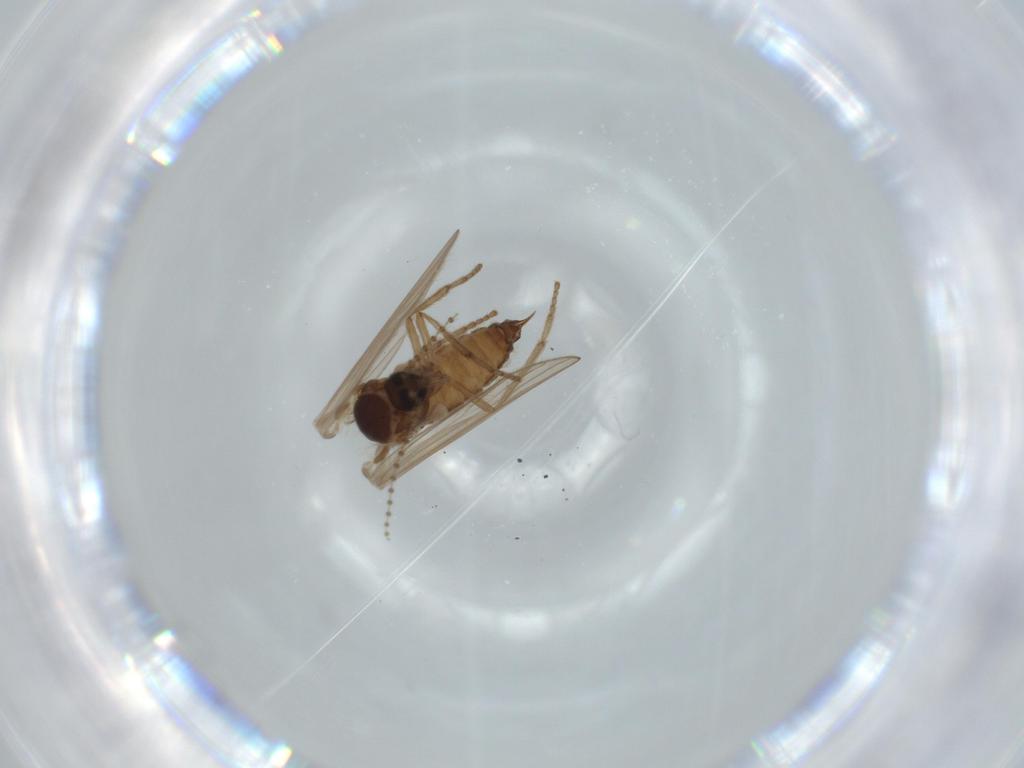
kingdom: Animalia
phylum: Arthropoda
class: Insecta
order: Diptera
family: Psychodidae
